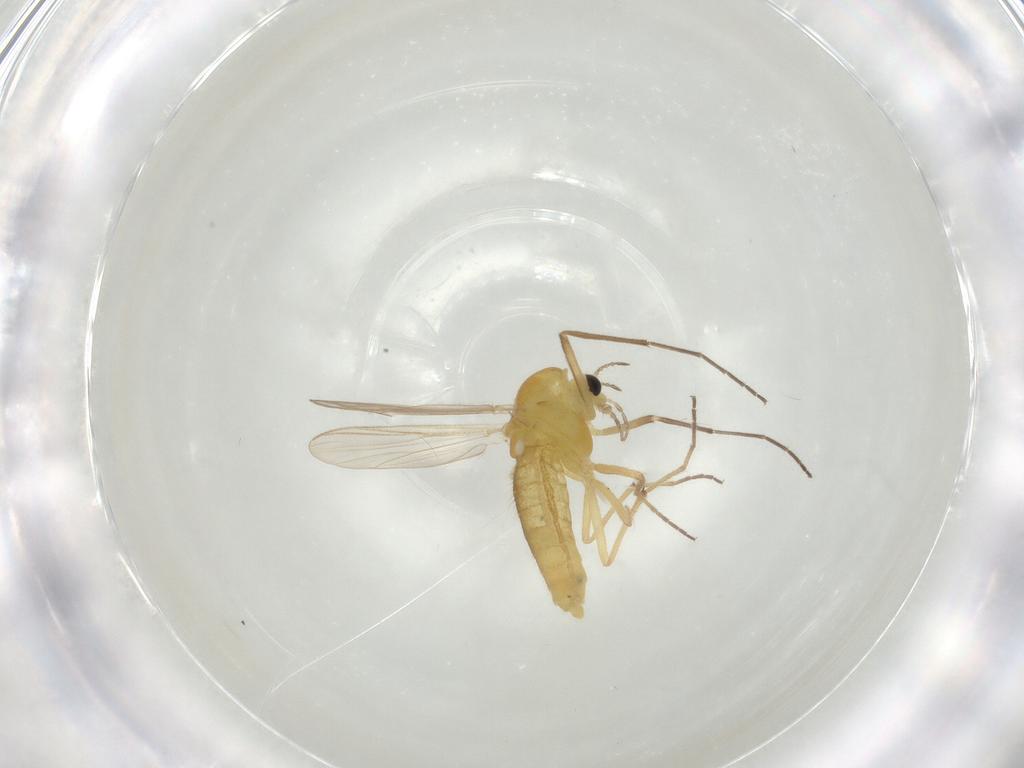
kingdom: Animalia
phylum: Arthropoda
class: Insecta
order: Diptera
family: Chironomidae
